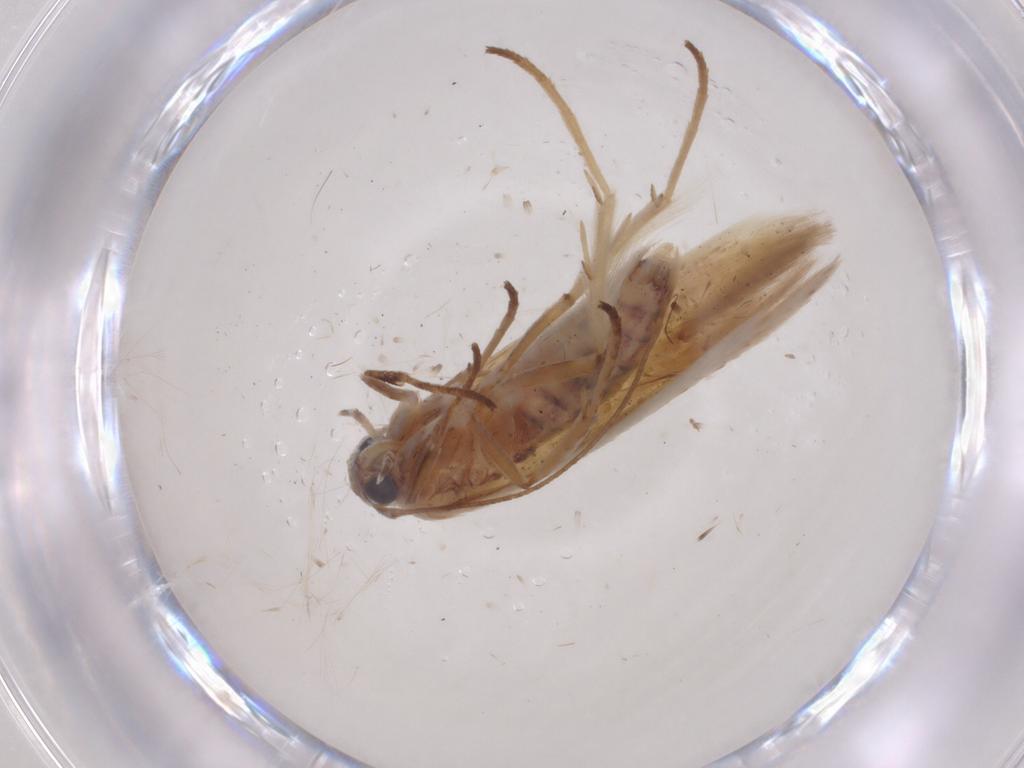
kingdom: Animalia
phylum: Arthropoda
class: Insecta
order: Lepidoptera
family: Scythrididae
